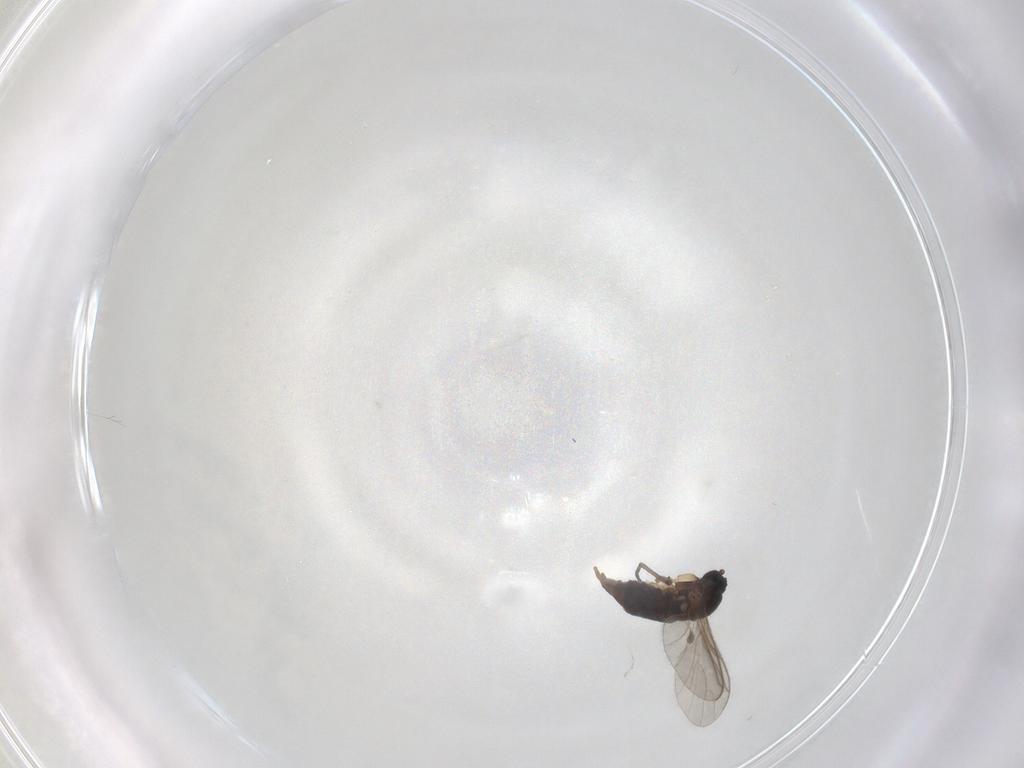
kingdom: Animalia
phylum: Arthropoda
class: Insecta
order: Diptera
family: Sciaridae
